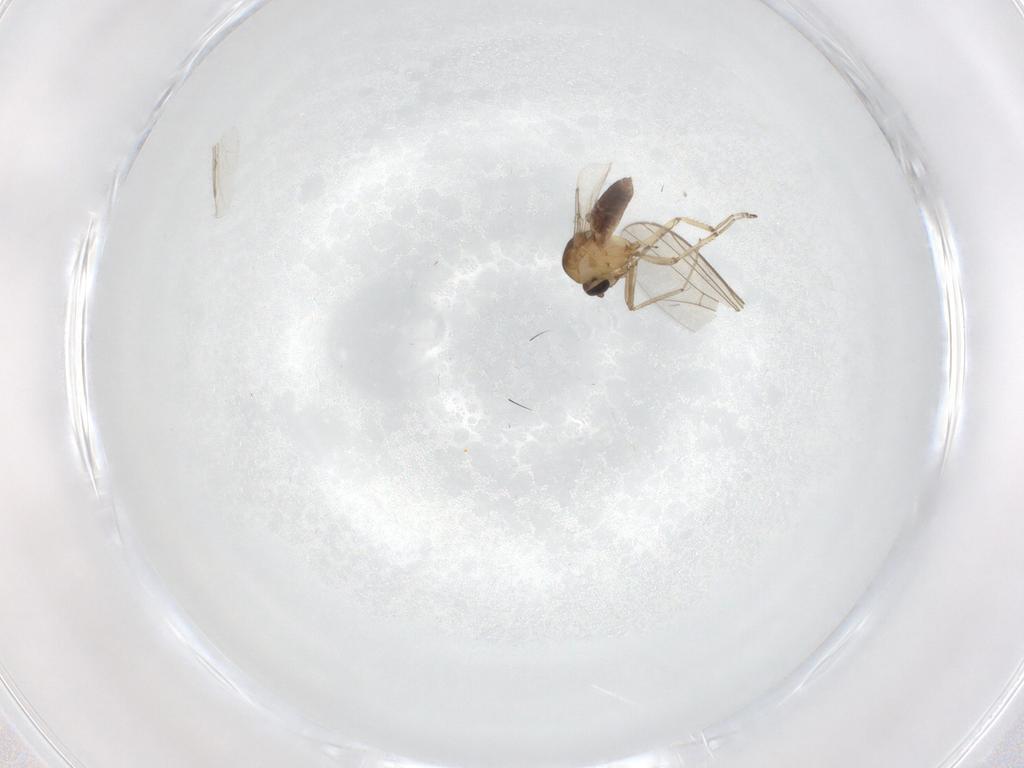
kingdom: Animalia
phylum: Arthropoda
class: Insecta
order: Diptera
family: Ceratopogonidae
